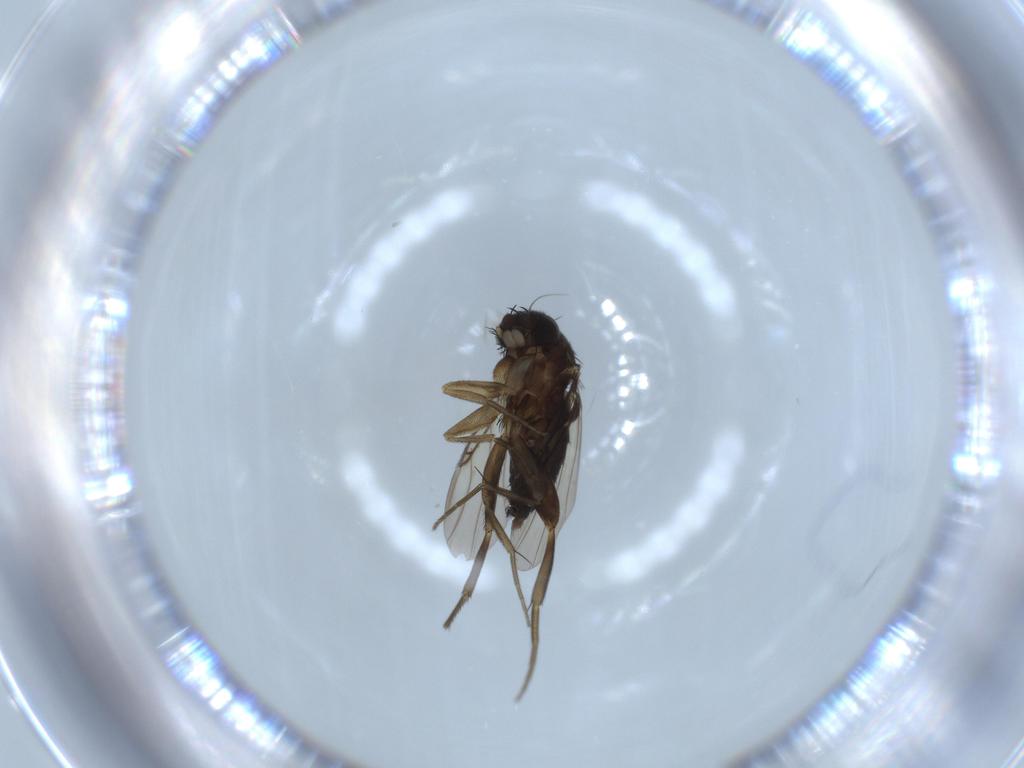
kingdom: Animalia
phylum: Arthropoda
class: Insecta
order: Diptera
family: Phoridae
